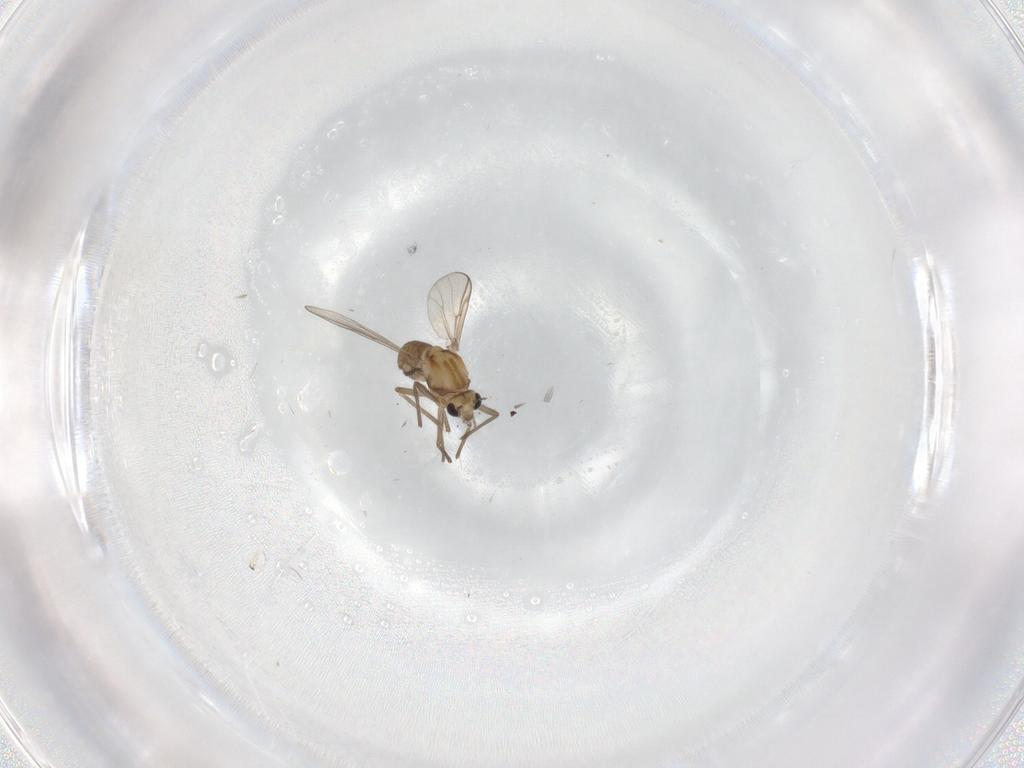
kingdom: Animalia
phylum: Arthropoda
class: Insecta
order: Diptera
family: Chironomidae
